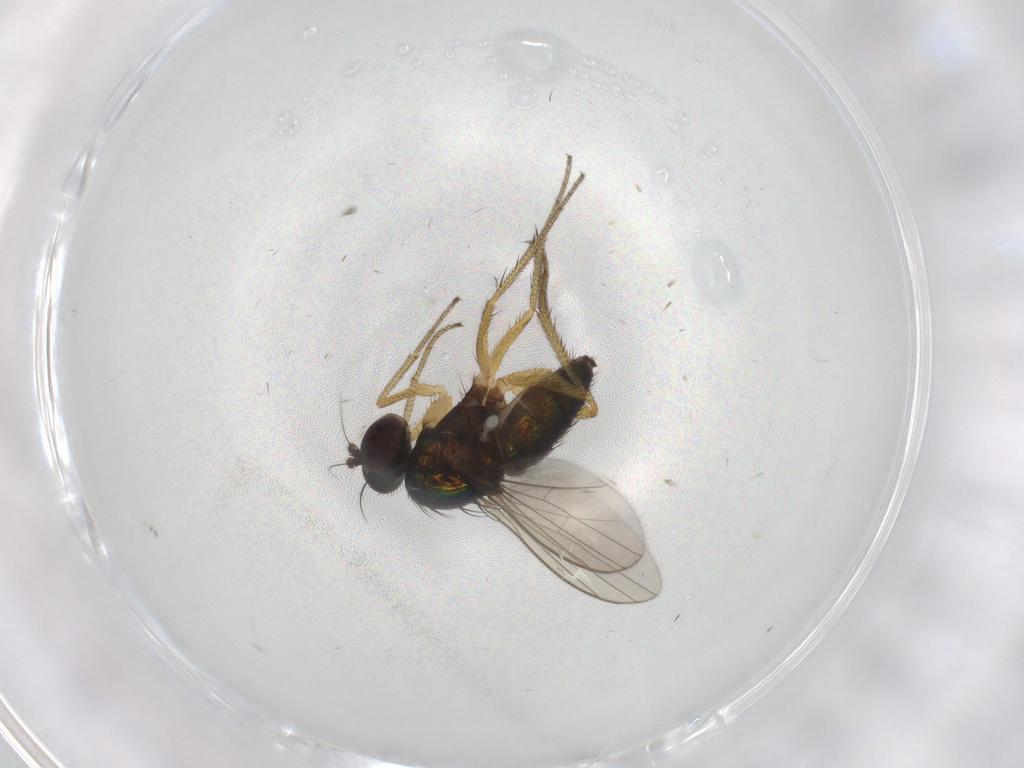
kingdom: Animalia
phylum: Arthropoda
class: Insecta
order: Diptera
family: Dolichopodidae
